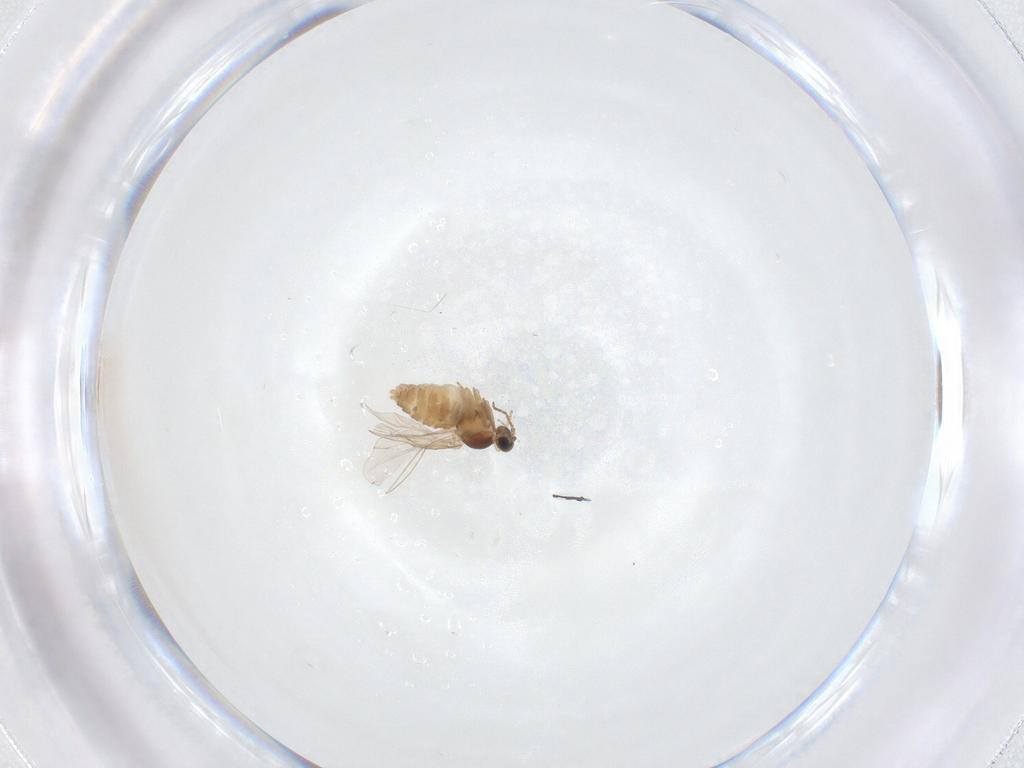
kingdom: Animalia
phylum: Arthropoda
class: Insecta
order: Diptera
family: Cecidomyiidae
